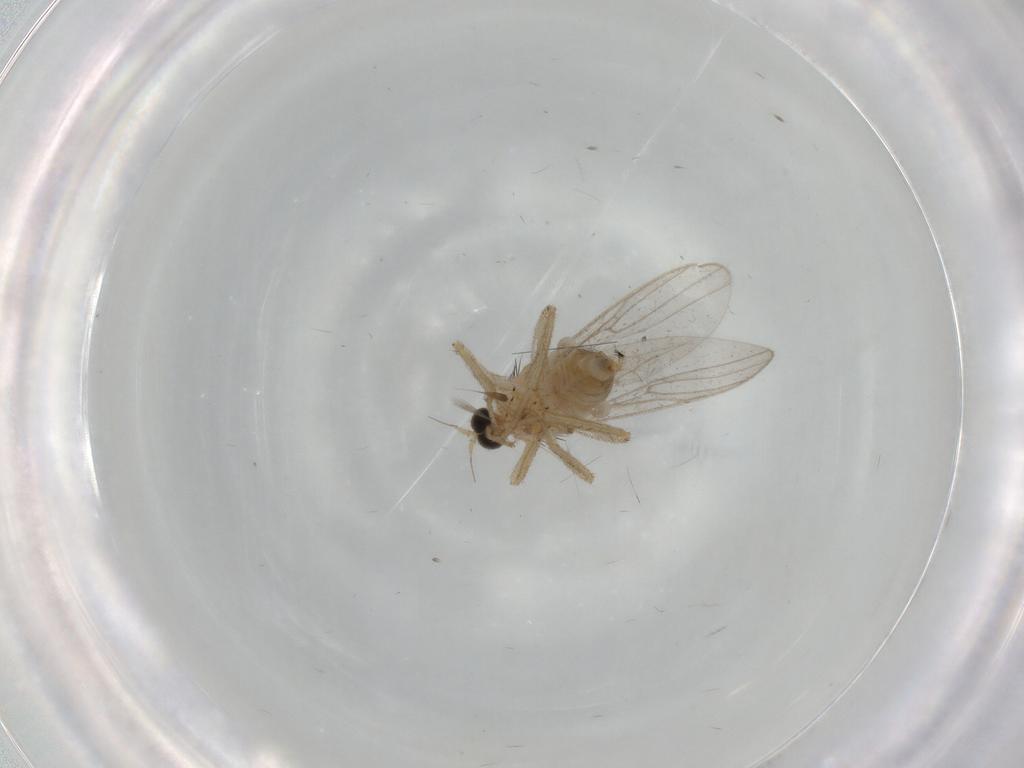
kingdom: Animalia
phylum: Arthropoda
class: Insecta
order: Diptera
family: Hybotidae
